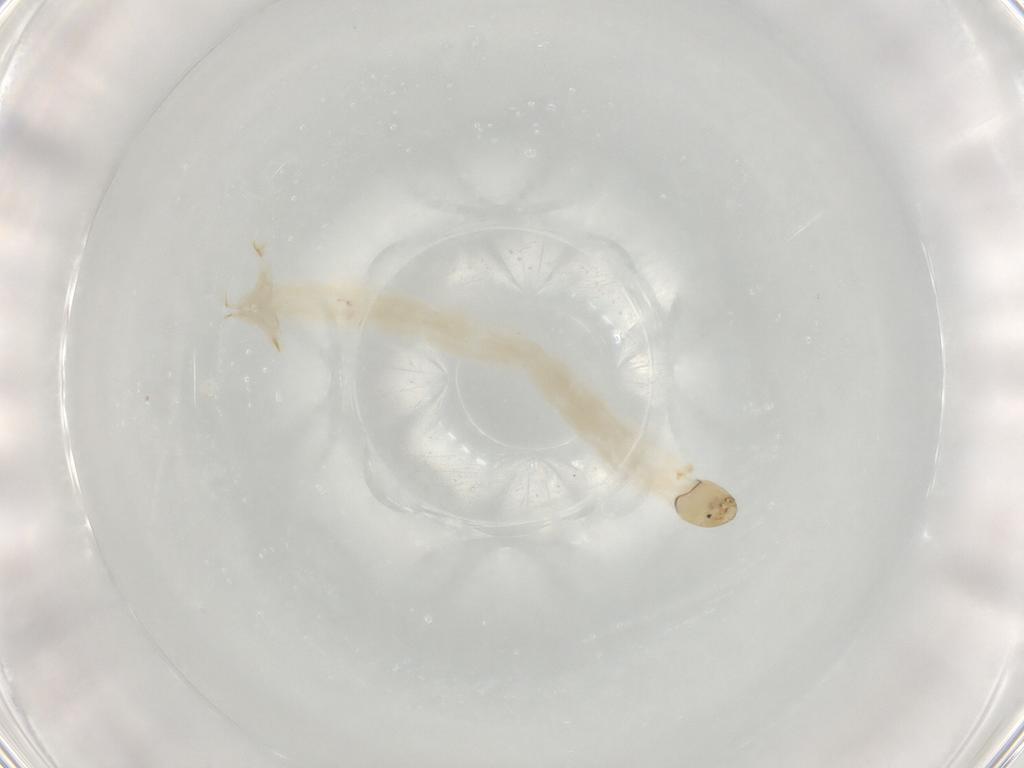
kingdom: Animalia
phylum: Arthropoda
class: Insecta
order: Diptera
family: Chironomidae
